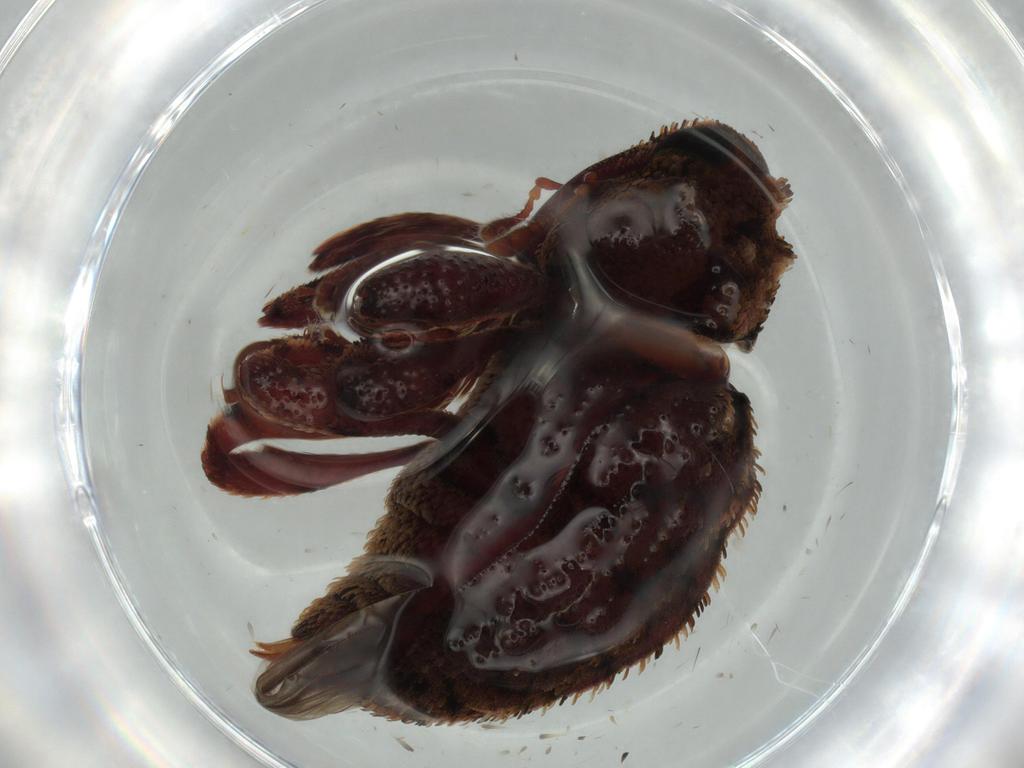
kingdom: Animalia
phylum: Arthropoda
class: Insecta
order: Coleoptera
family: Curculionidae
